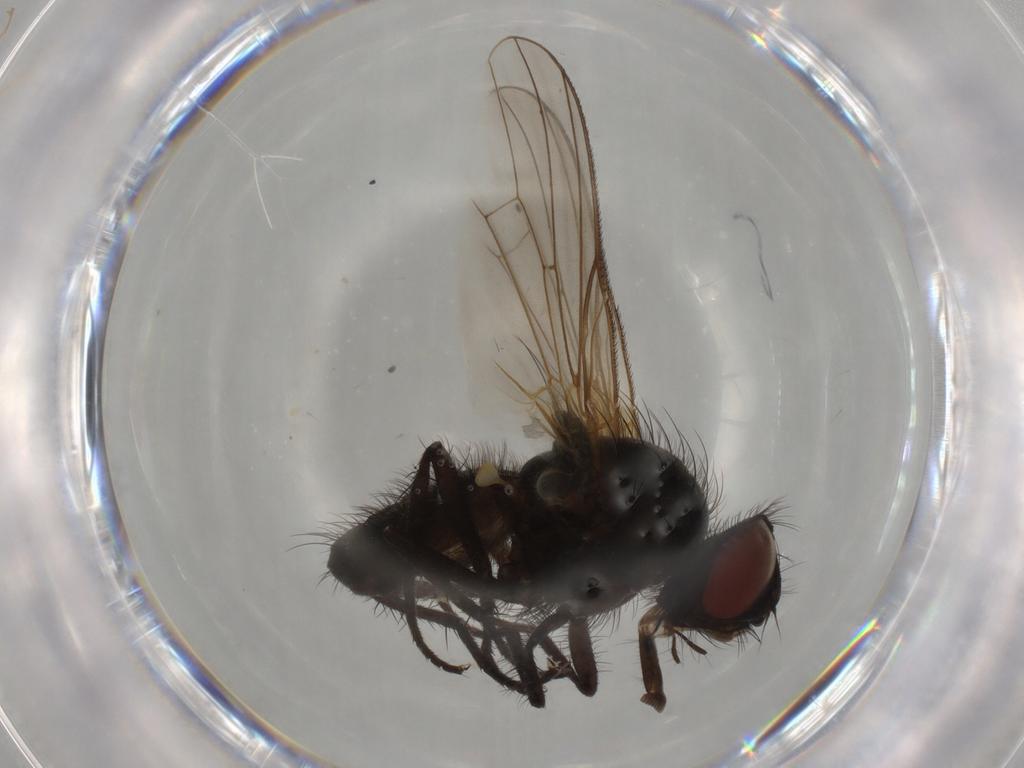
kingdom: Animalia
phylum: Arthropoda
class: Insecta
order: Diptera
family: Anthomyiidae
